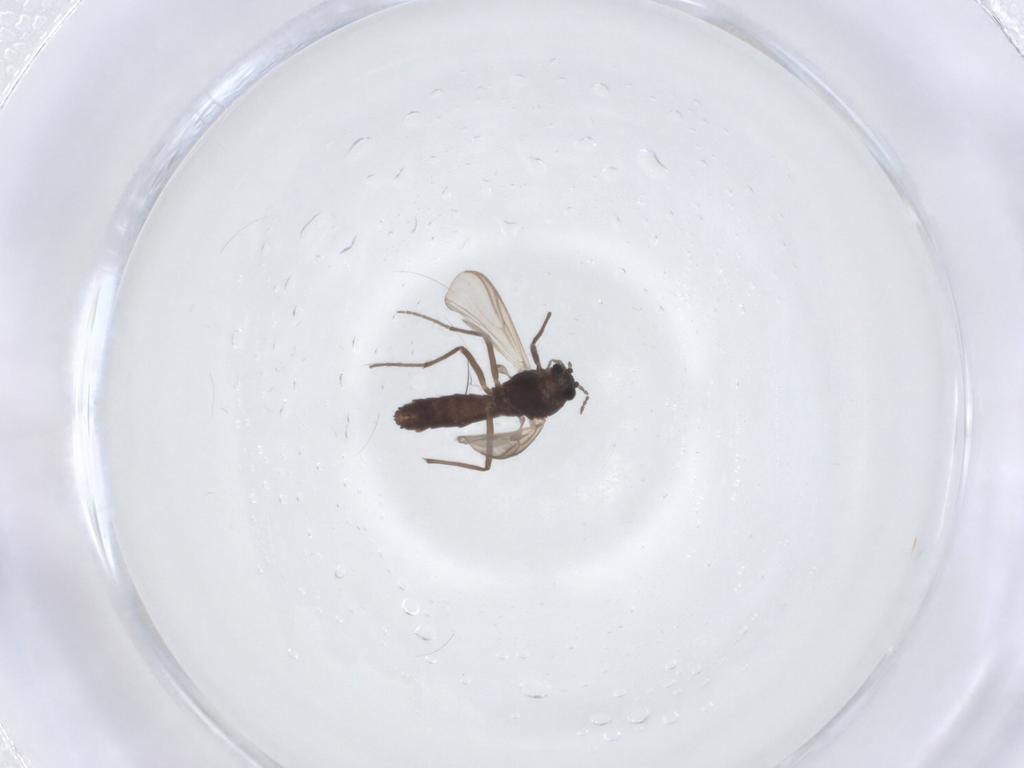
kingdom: Animalia
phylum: Arthropoda
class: Insecta
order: Diptera
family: Chironomidae
